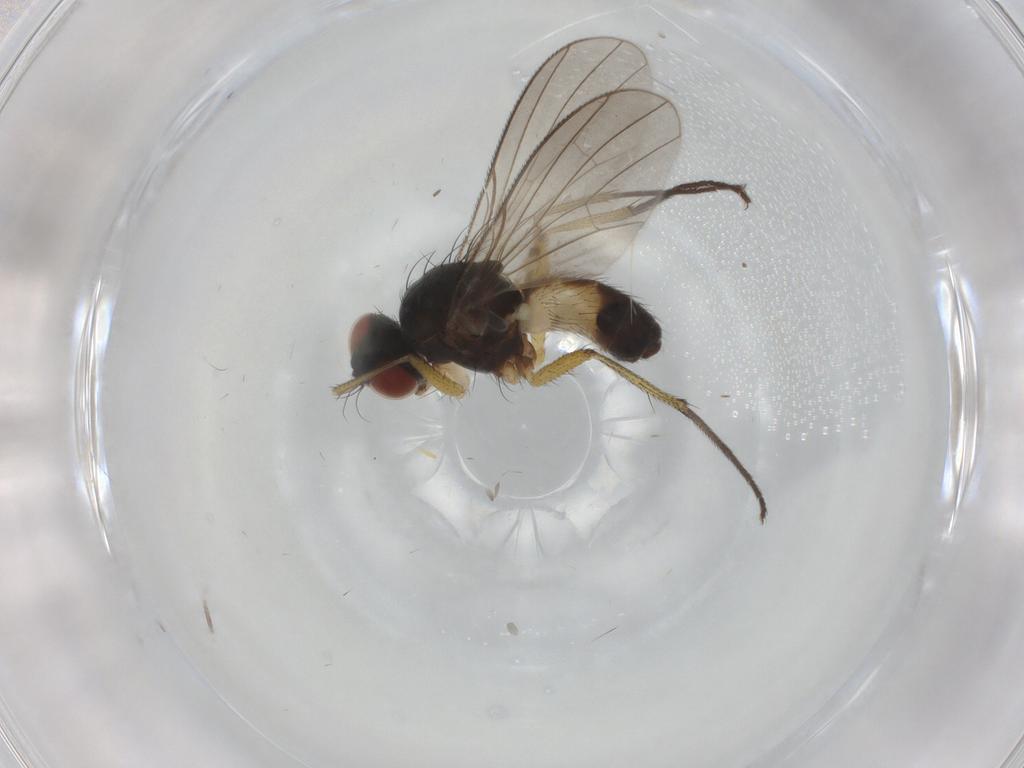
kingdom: Animalia
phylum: Arthropoda
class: Insecta
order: Diptera
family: Muscidae
